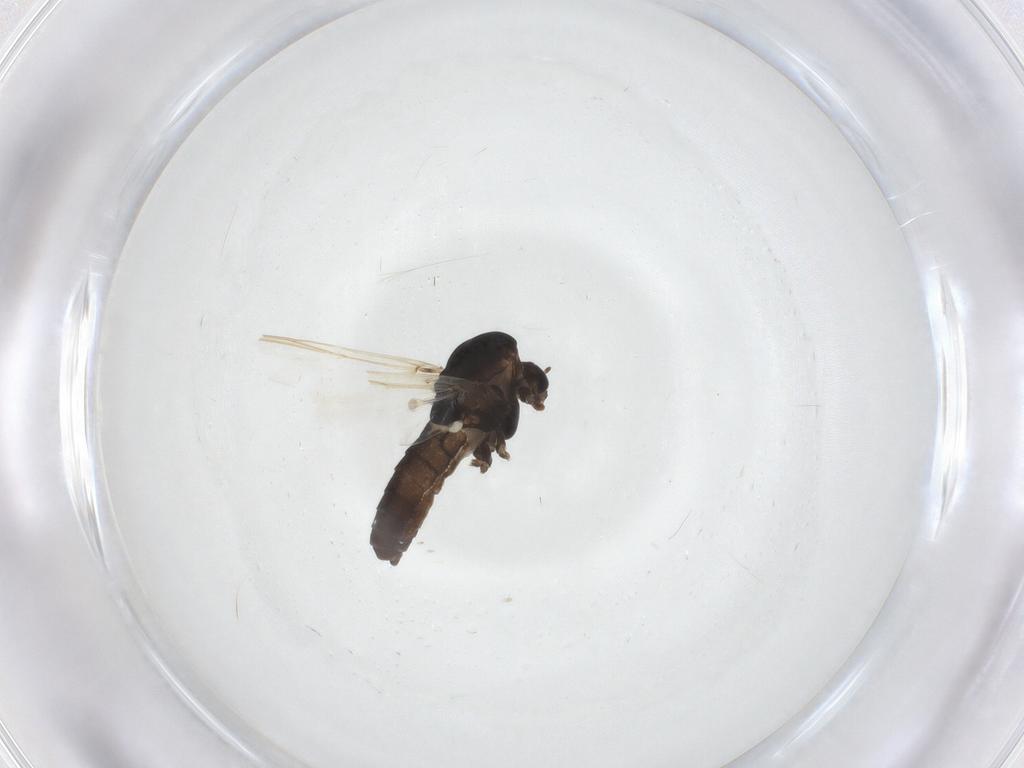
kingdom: Animalia
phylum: Arthropoda
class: Insecta
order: Diptera
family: Chironomidae
